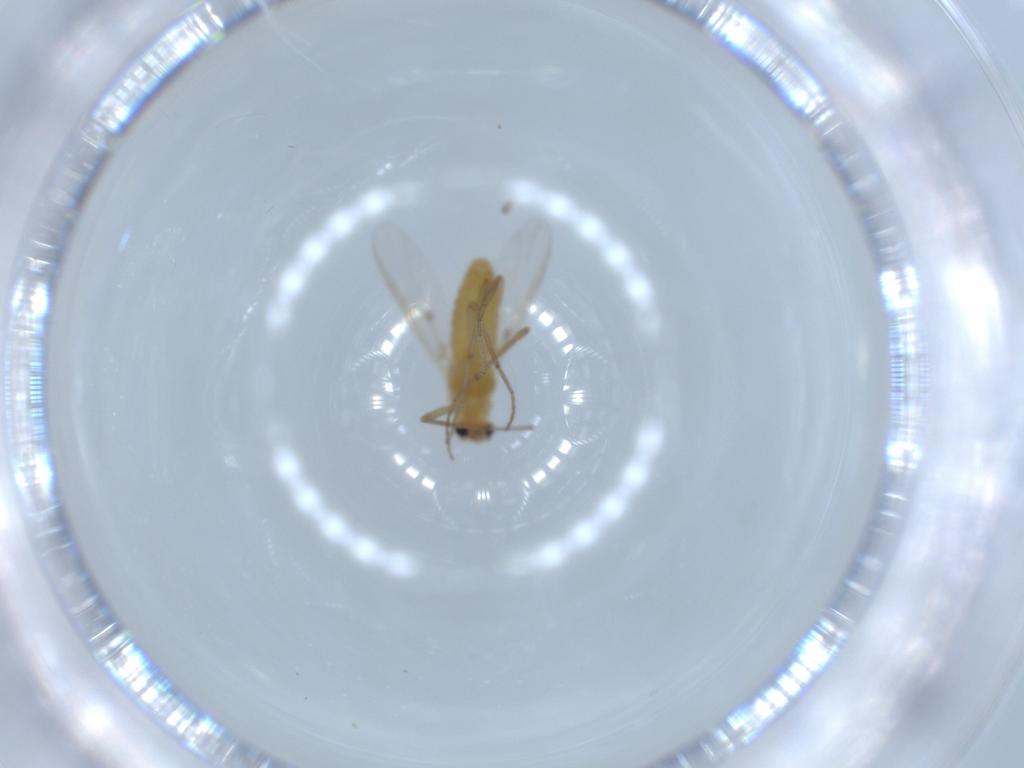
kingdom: Animalia
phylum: Arthropoda
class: Insecta
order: Diptera
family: Chironomidae
